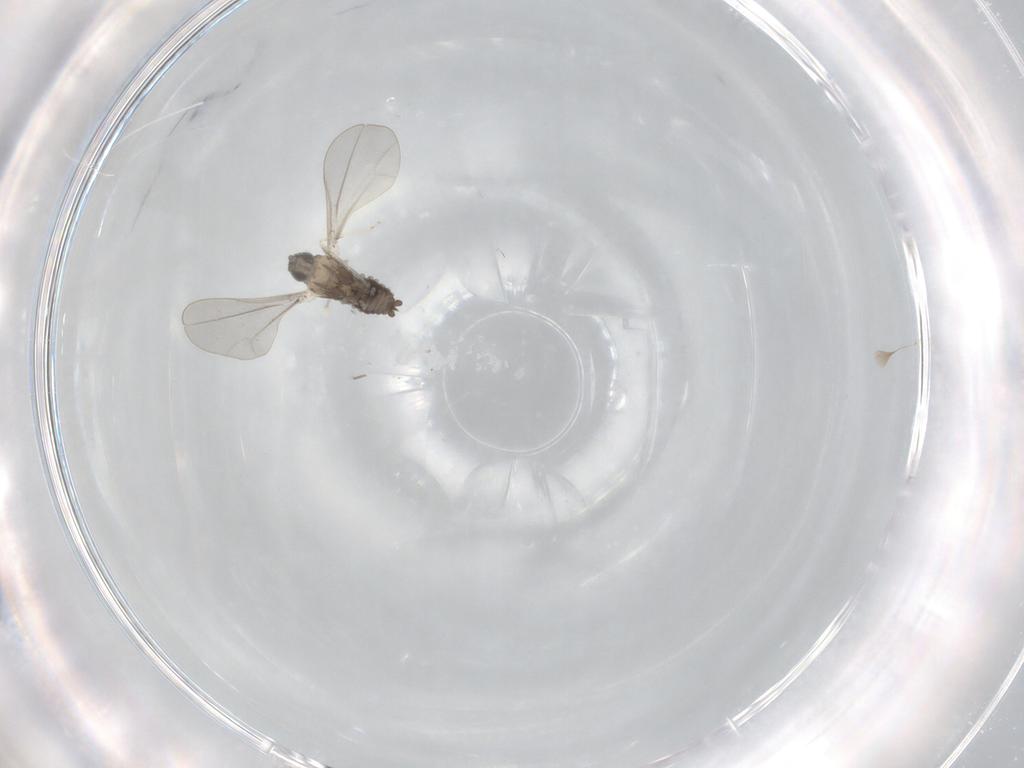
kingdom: Animalia
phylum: Arthropoda
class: Insecta
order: Diptera
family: Cecidomyiidae
